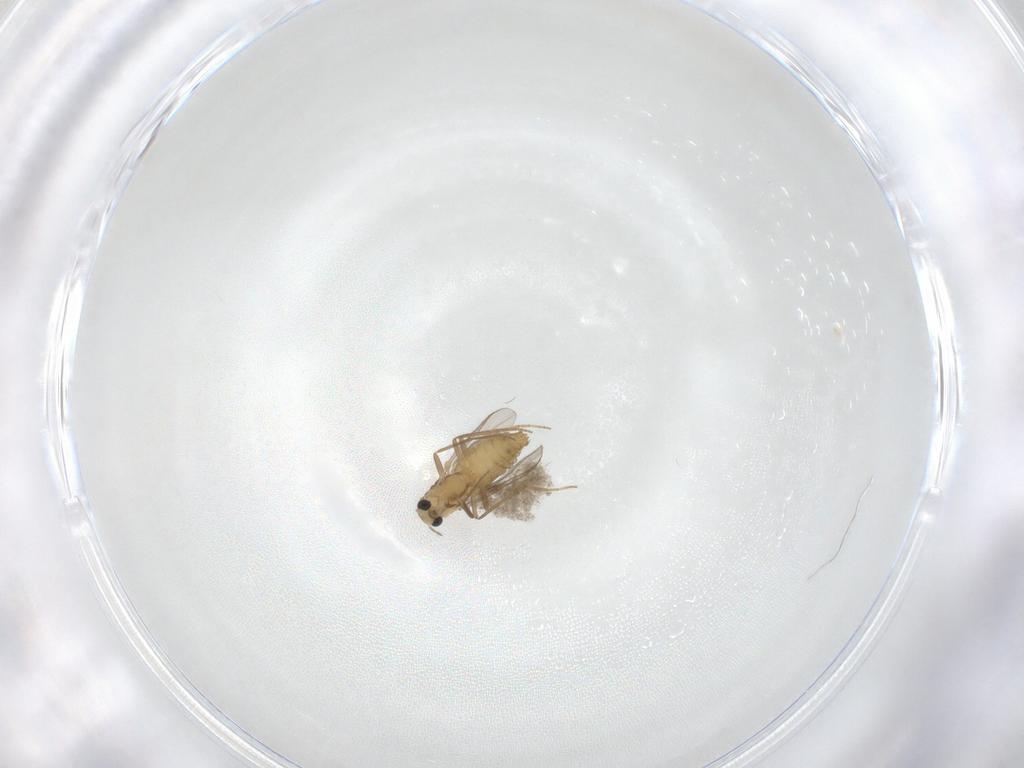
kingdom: Animalia
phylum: Arthropoda
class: Insecta
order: Diptera
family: Chironomidae
